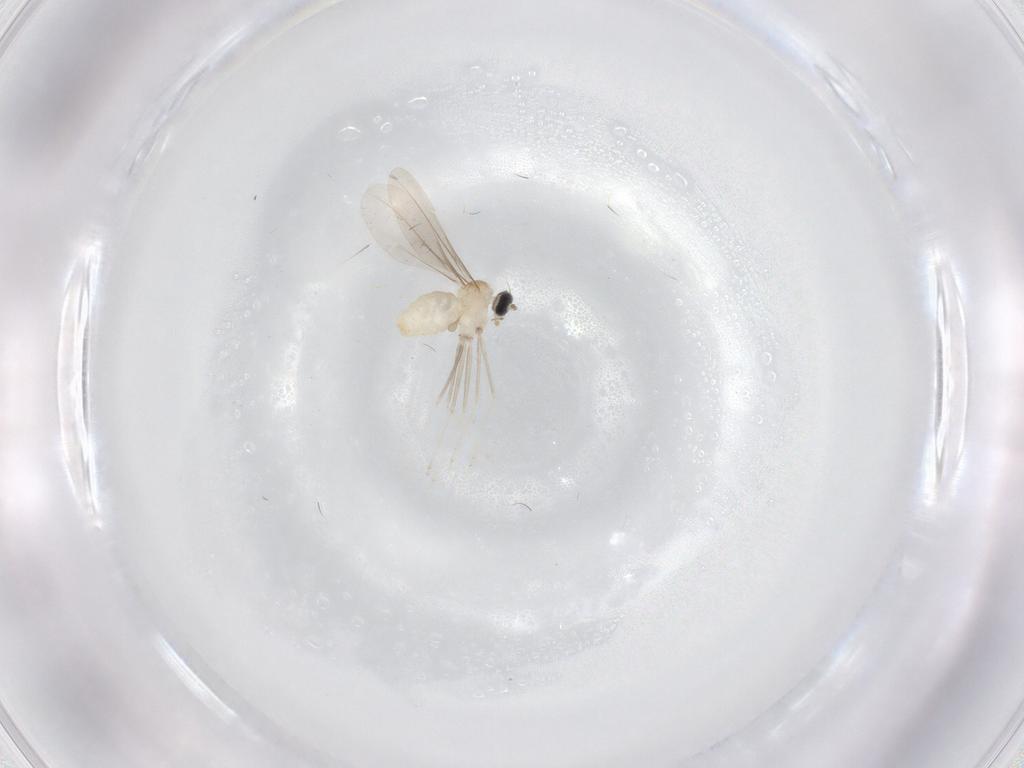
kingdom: Animalia
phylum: Arthropoda
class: Insecta
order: Diptera
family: Cecidomyiidae
